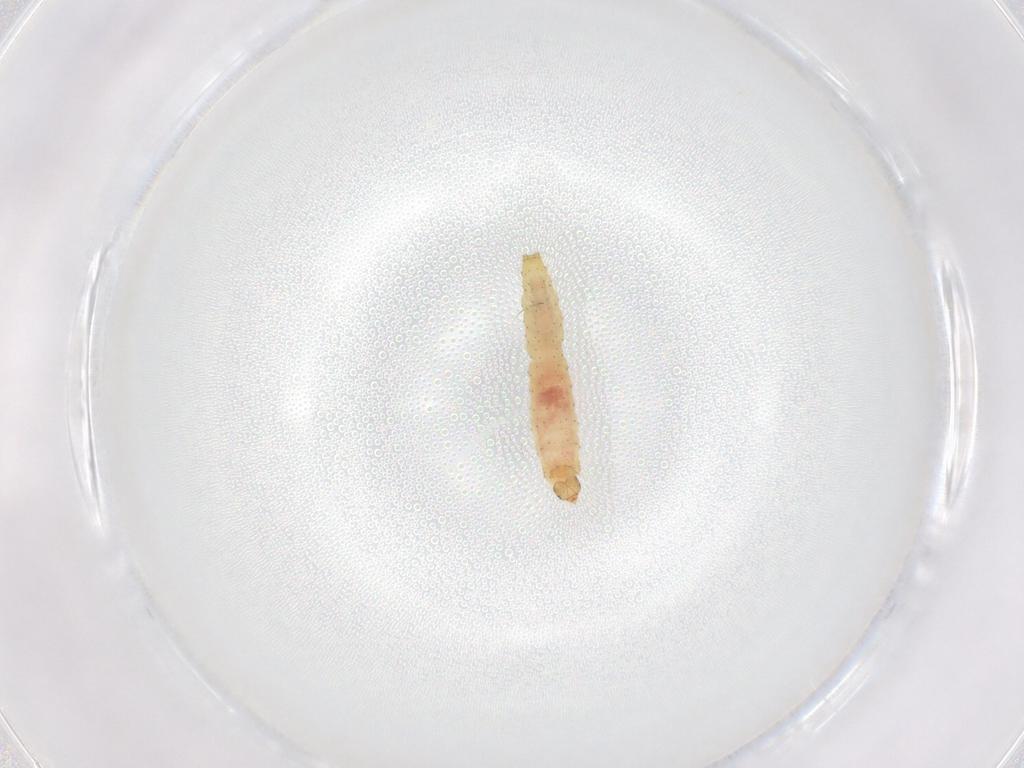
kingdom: Animalia
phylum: Arthropoda
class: Insecta
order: Lepidoptera
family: Gelechiidae
